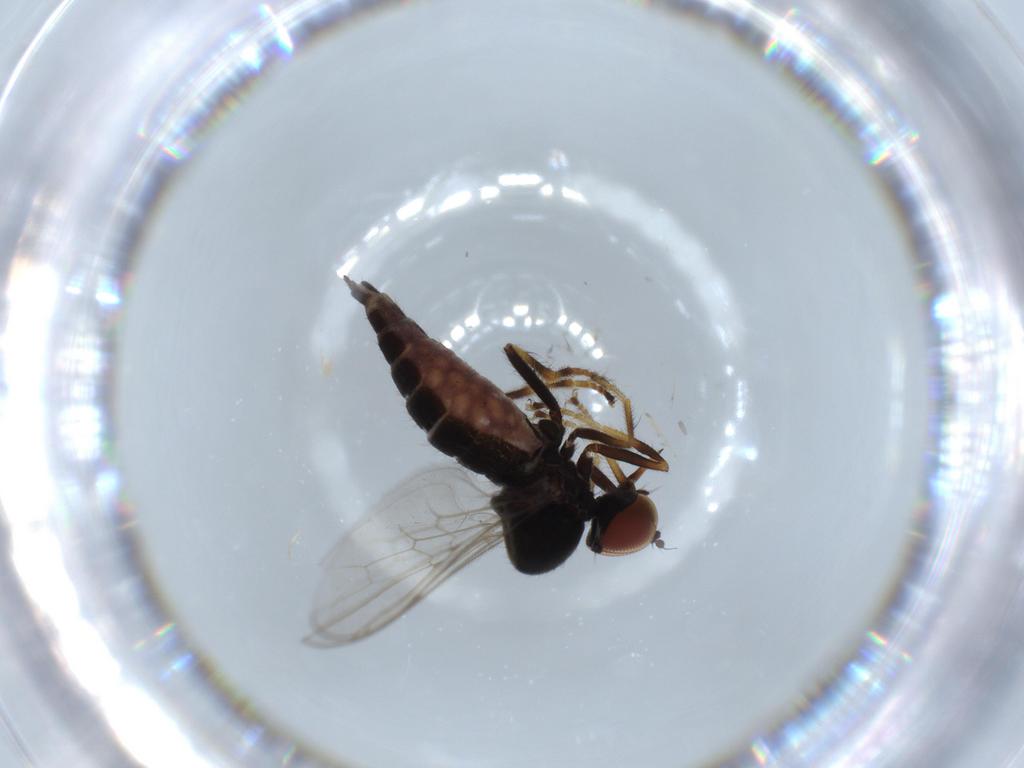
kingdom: Animalia
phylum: Arthropoda
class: Insecta
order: Diptera
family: Hybotidae
